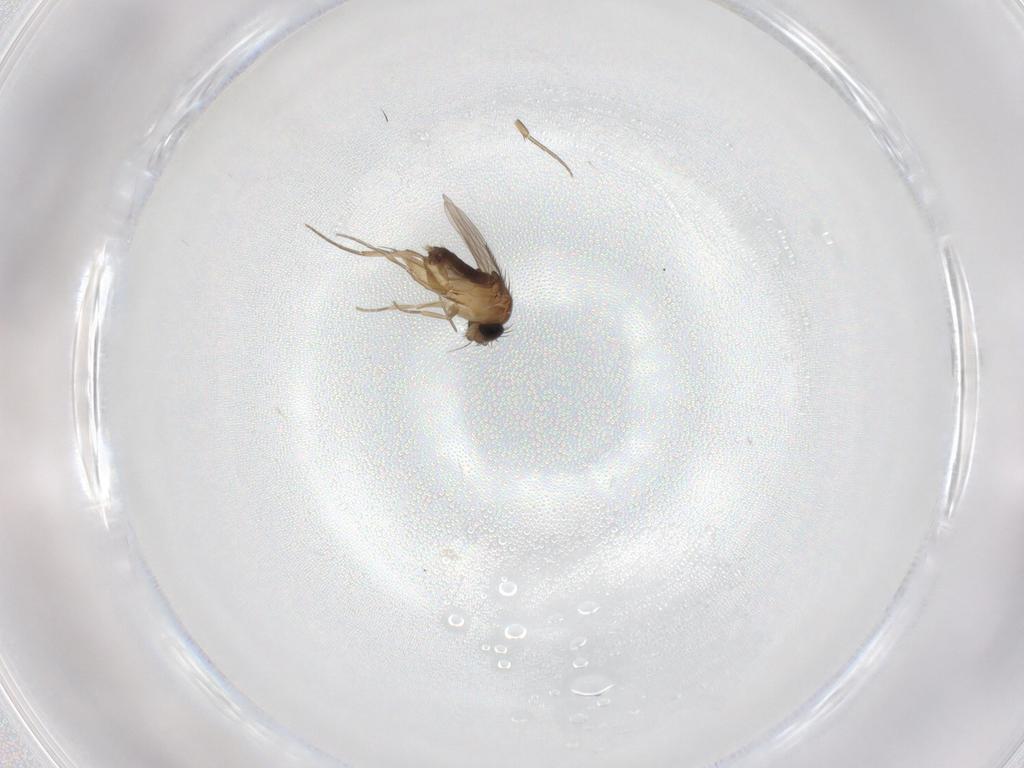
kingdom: Animalia
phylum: Arthropoda
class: Insecta
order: Diptera
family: Phoridae
